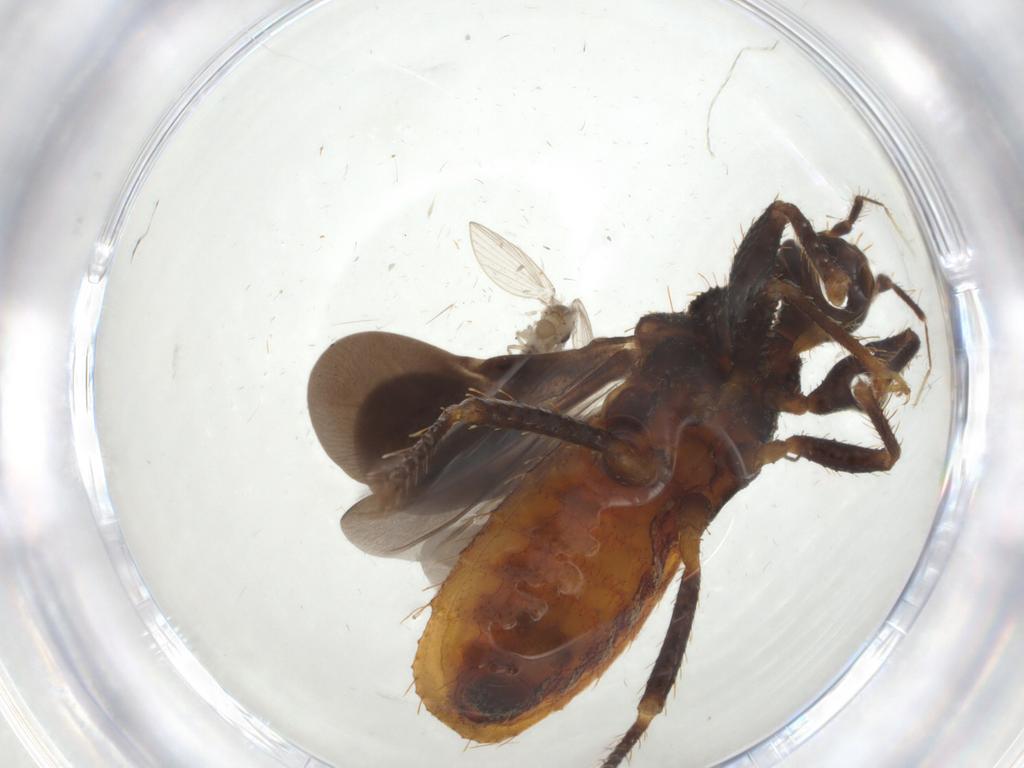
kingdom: Animalia
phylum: Arthropoda
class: Insecta
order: Diptera
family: Psychodidae
